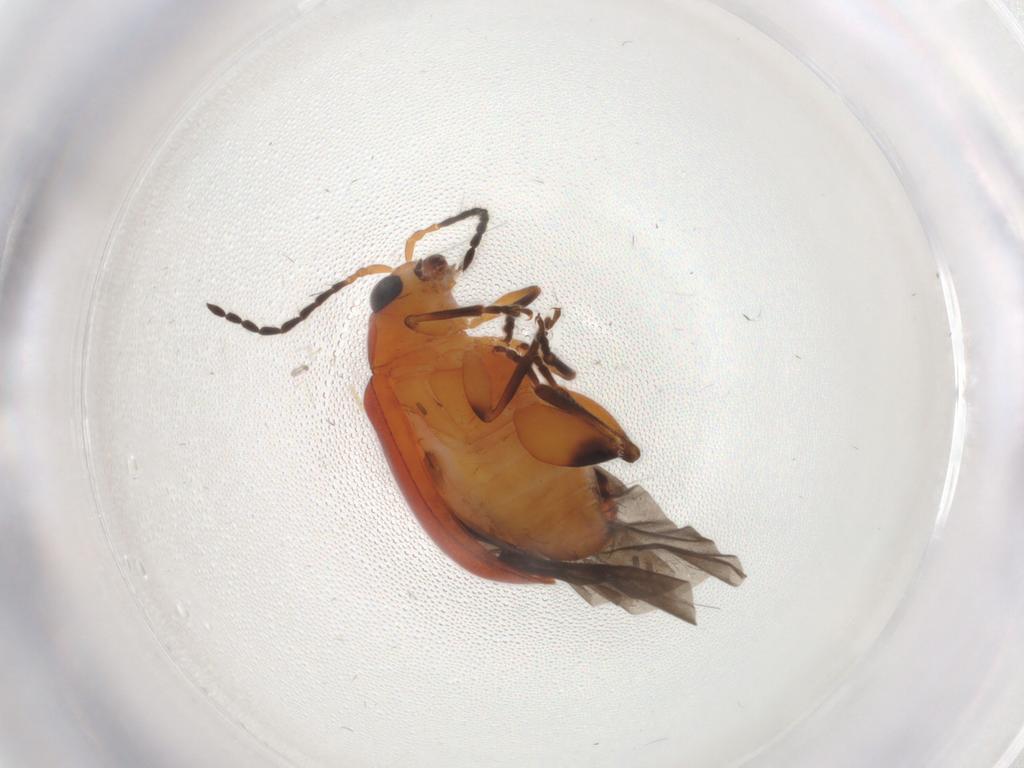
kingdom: Animalia
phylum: Arthropoda
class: Insecta
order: Coleoptera
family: Chrysomelidae
